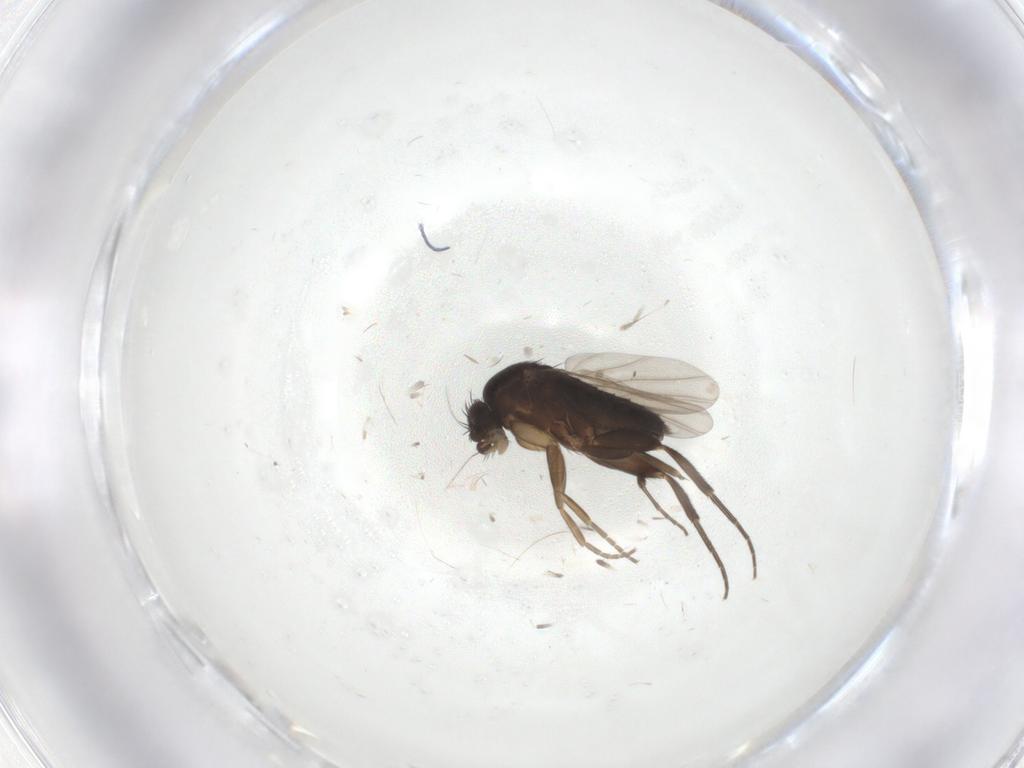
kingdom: Animalia
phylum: Arthropoda
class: Insecta
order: Diptera
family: Phoridae
